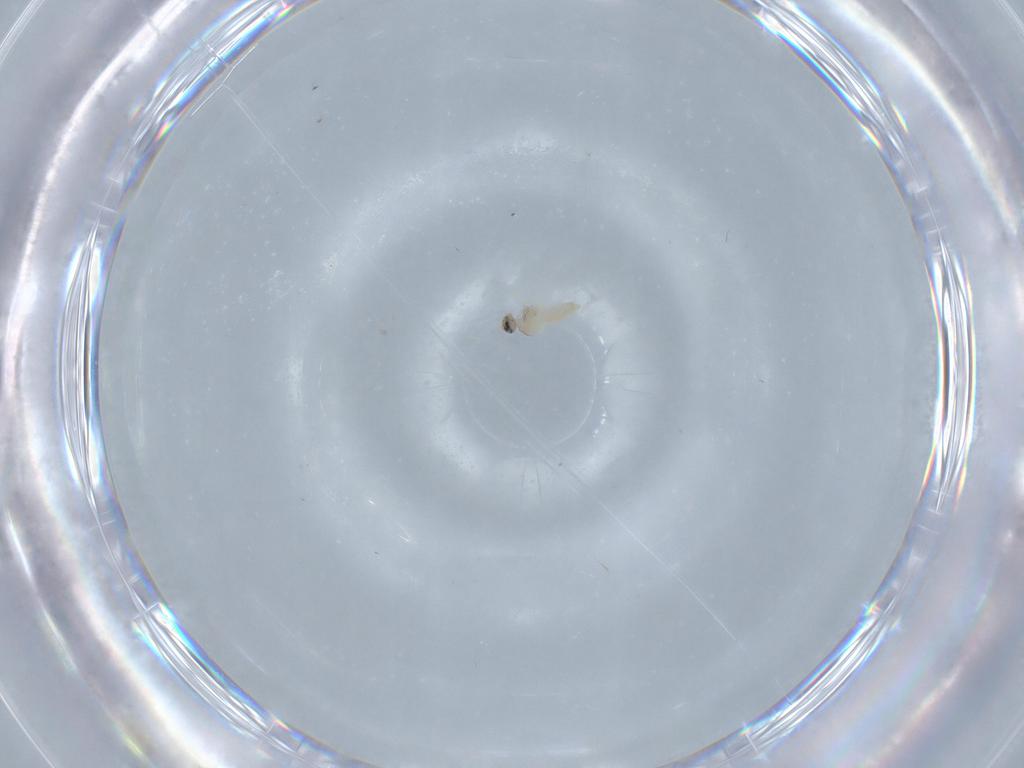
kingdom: Animalia
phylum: Arthropoda
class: Insecta
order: Diptera
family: Cecidomyiidae
